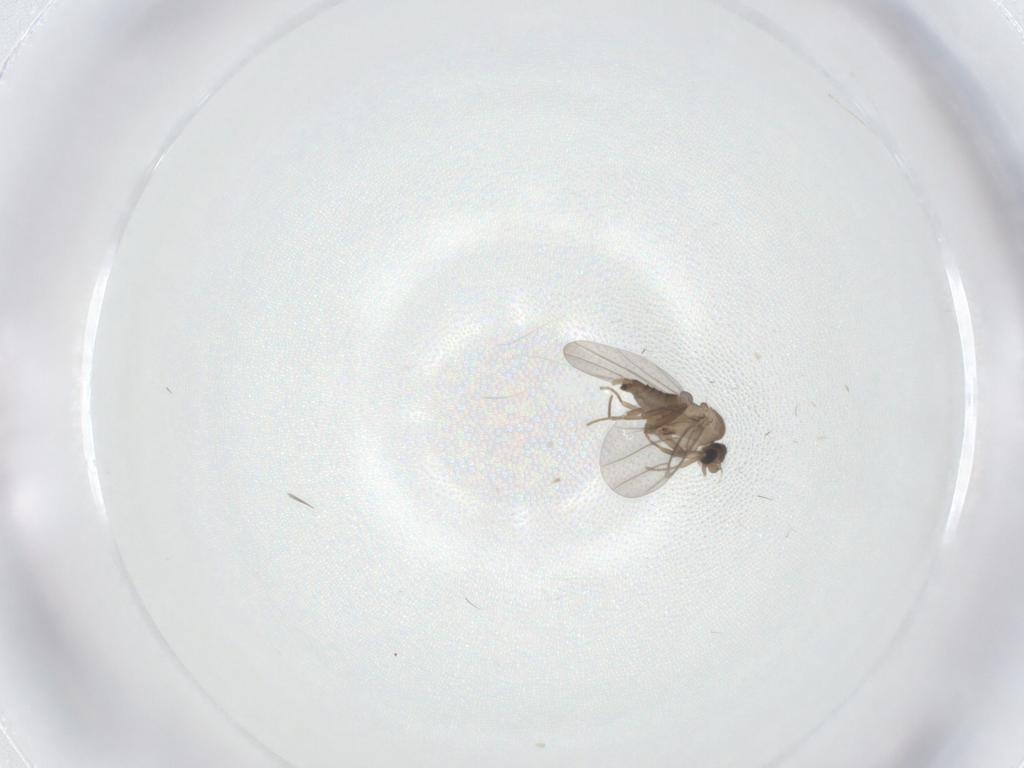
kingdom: Animalia
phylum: Arthropoda
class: Insecta
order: Diptera
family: Cecidomyiidae
